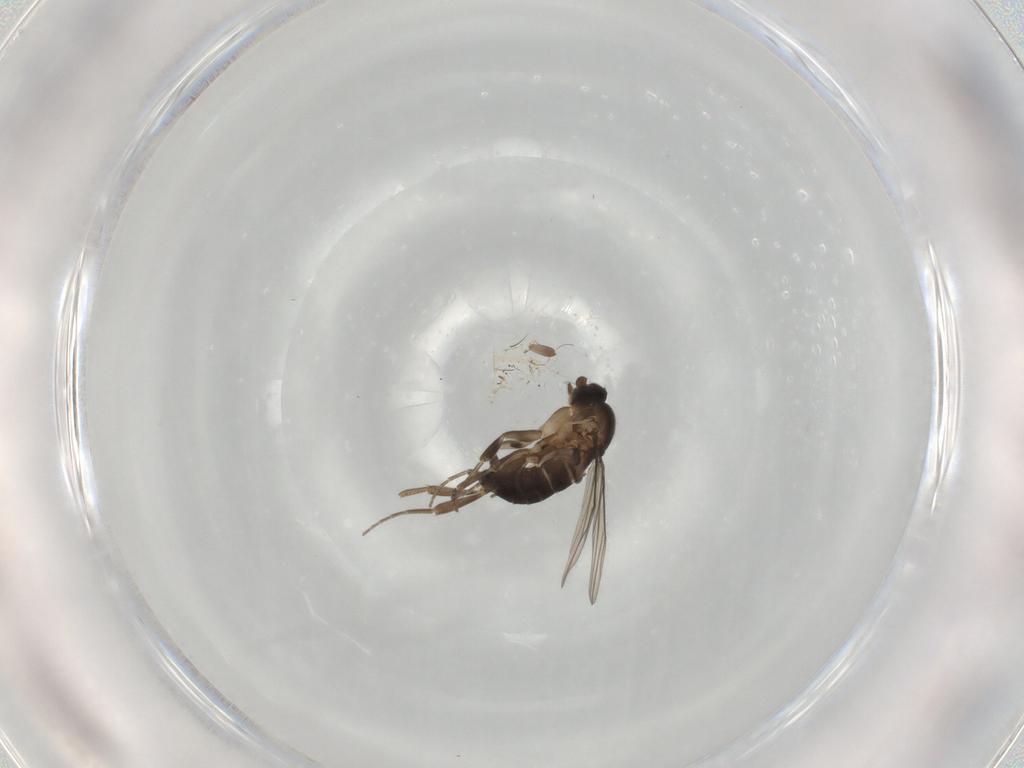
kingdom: Animalia
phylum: Arthropoda
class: Insecta
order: Diptera
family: Phoridae
